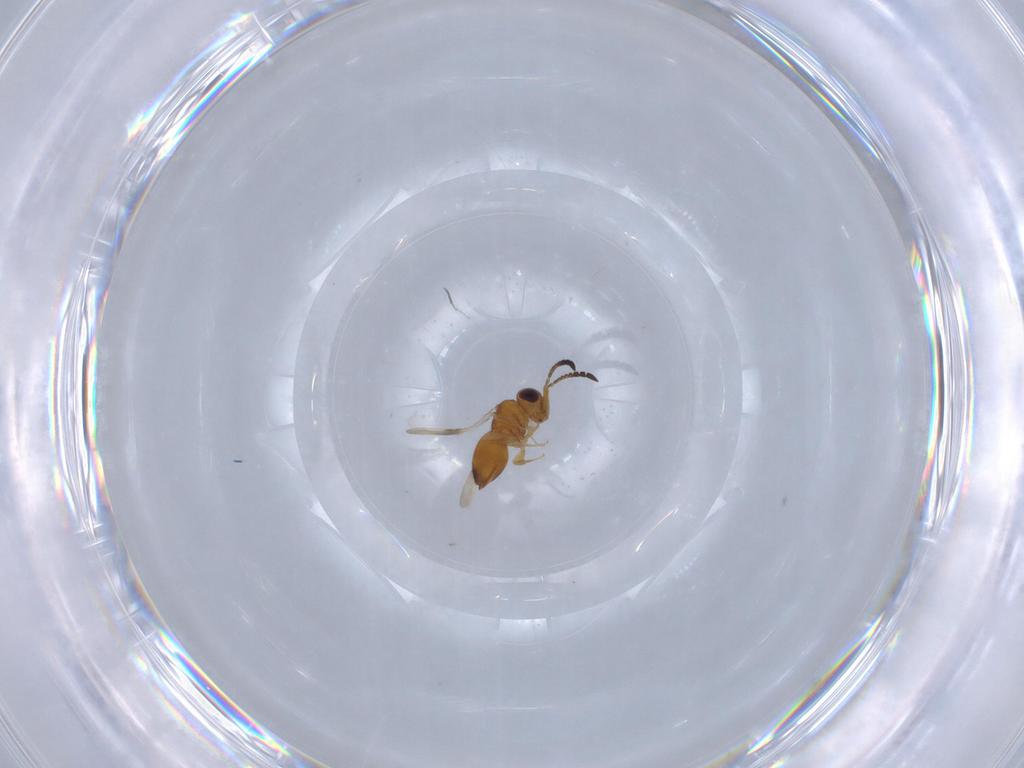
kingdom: Animalia
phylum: Arthropoda
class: Insecta
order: Hymenoptera
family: Ceraphronidae
